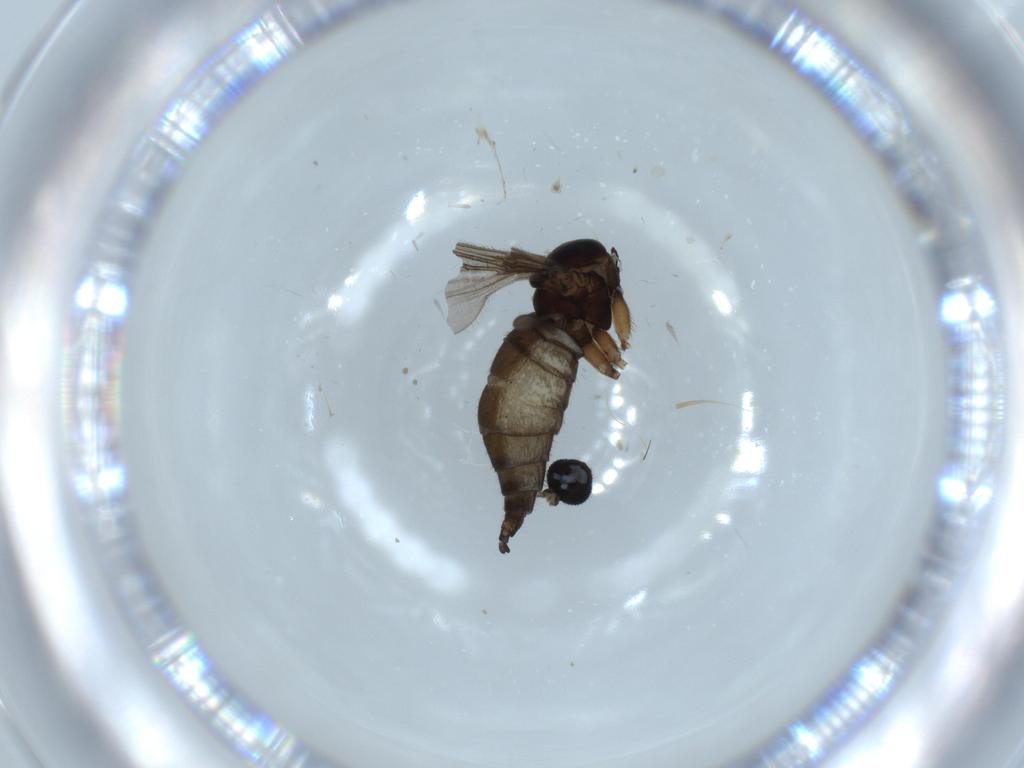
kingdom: Animalia
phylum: Arthropoda
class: Insecta
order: Diptera
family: Sciaridae
